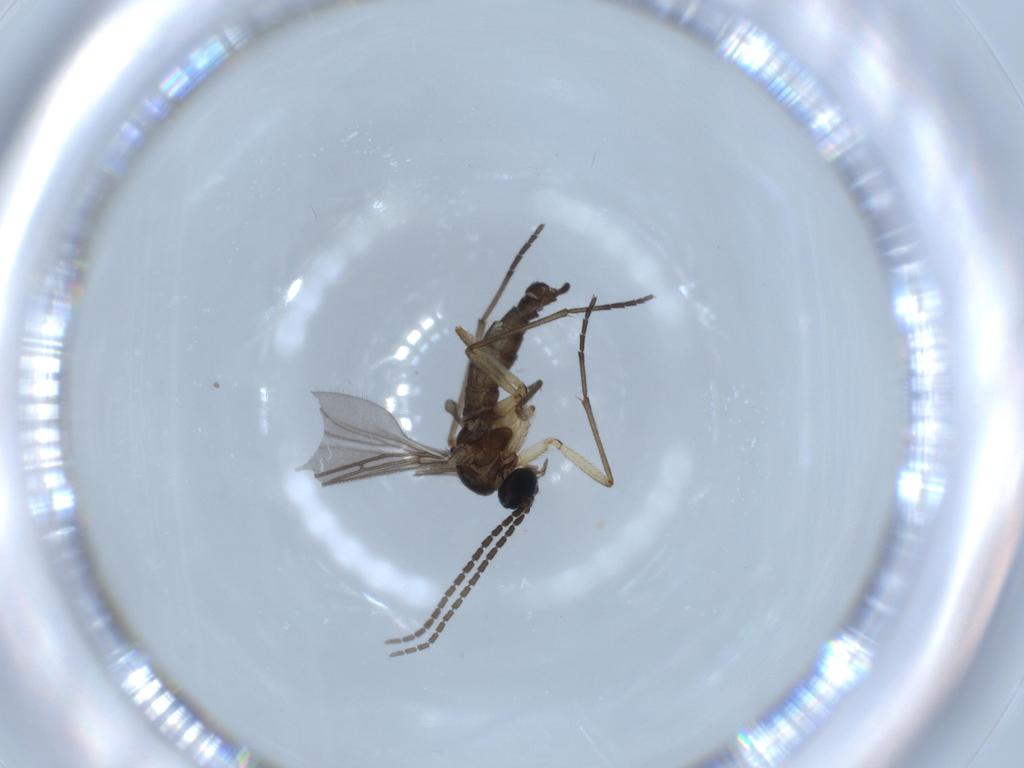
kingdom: Animalia
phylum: Arthropoda
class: Insecta
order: Diptera
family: Sciaridae
